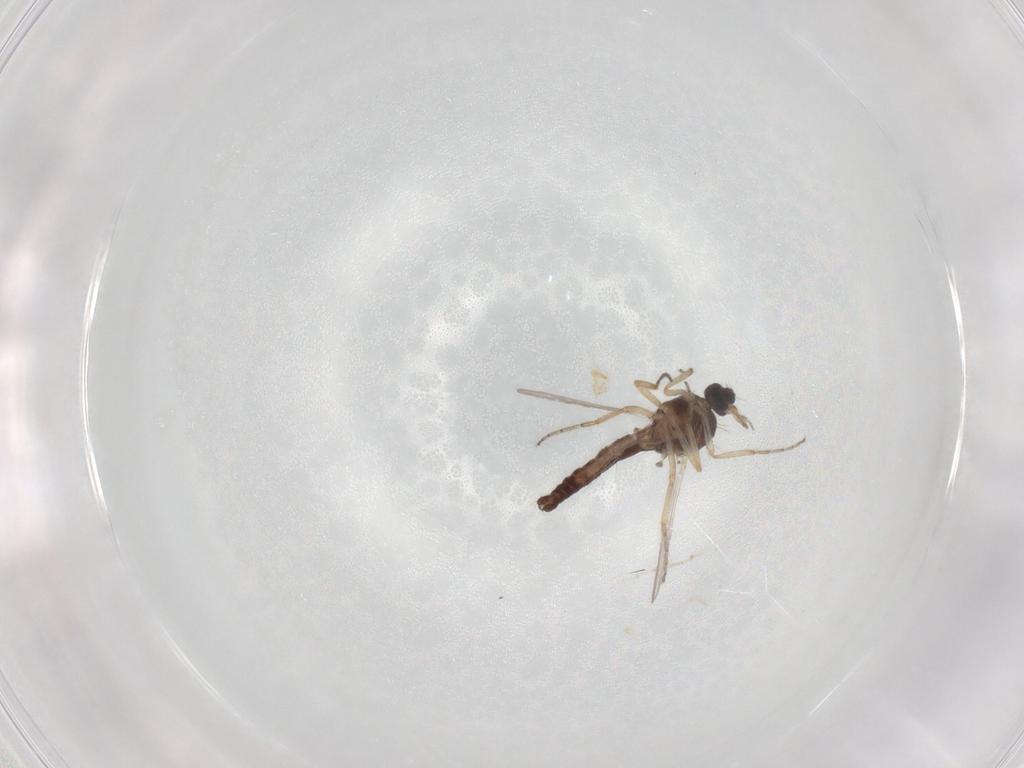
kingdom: Animalia
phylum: Arthropoda
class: Insecta
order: Diptera
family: Ceratopogonidae
